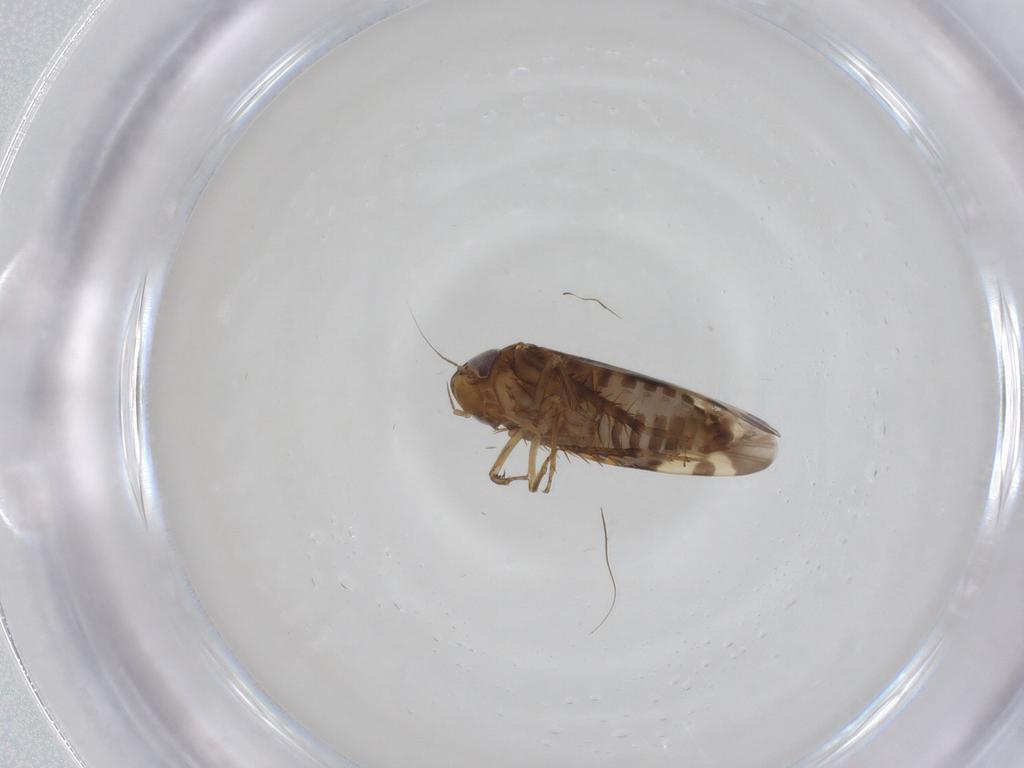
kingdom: Animalia
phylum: Arthropoda
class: Insecta
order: Hemiptera
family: Cicadellidae
